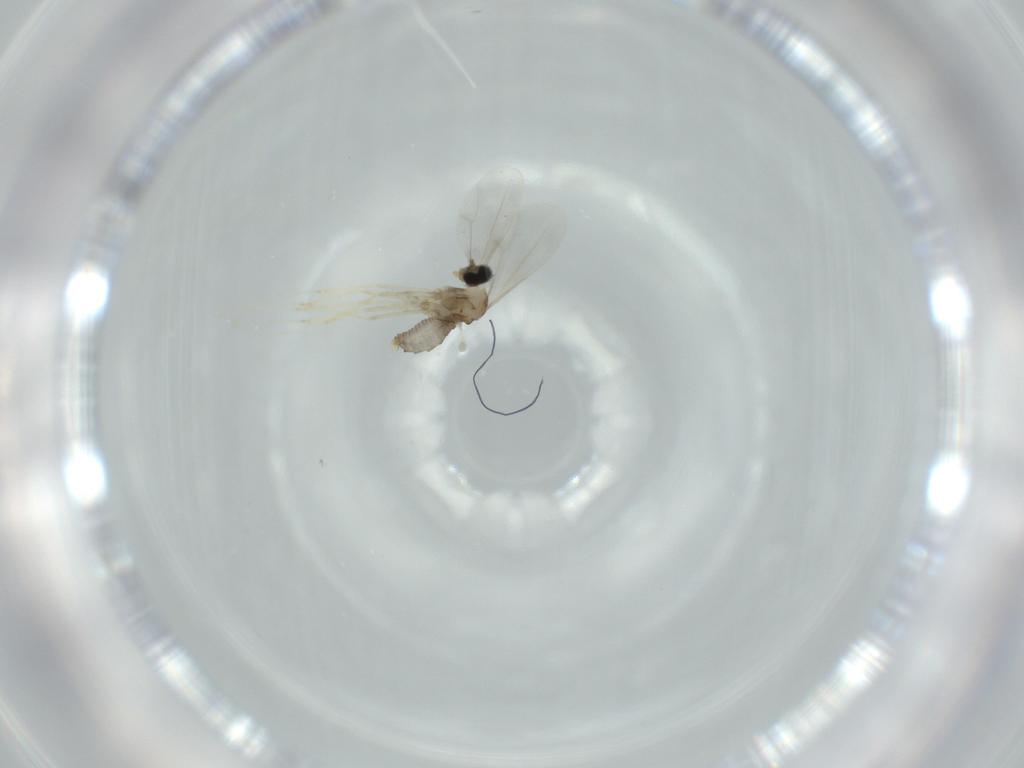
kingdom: Animalia
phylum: Arthropoda
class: Insecta
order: Diptera
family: Cecidomyiidae
